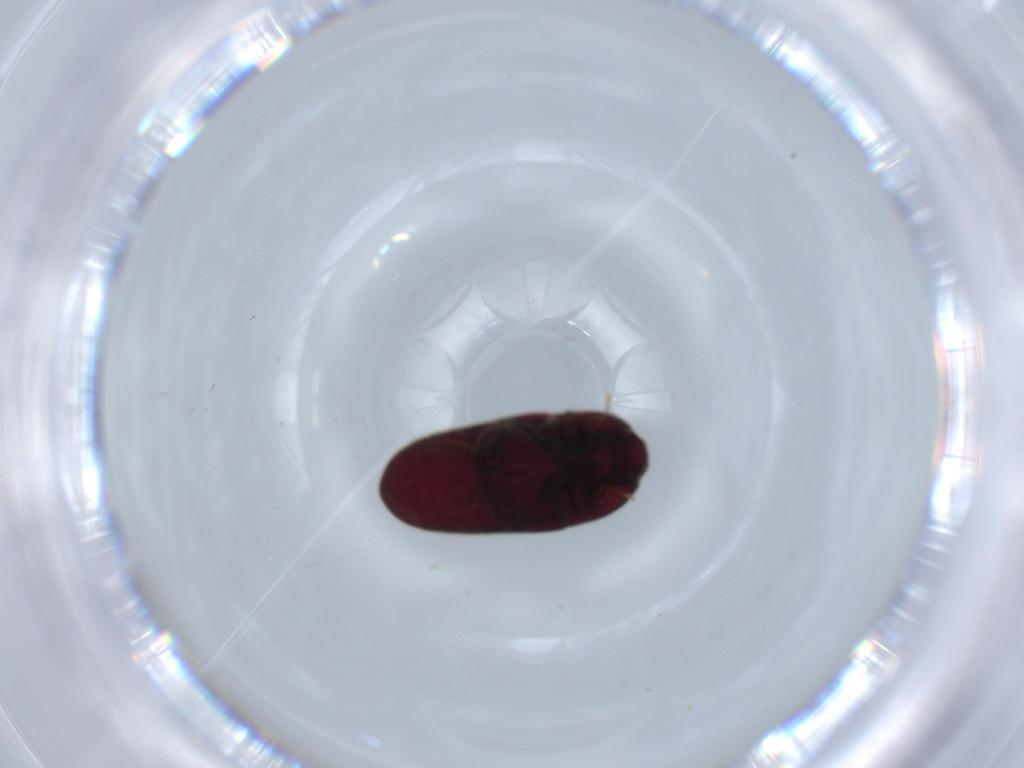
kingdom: Animalia
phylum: Arthropoda
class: Insecta
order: Coleoptera
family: Throscidae
